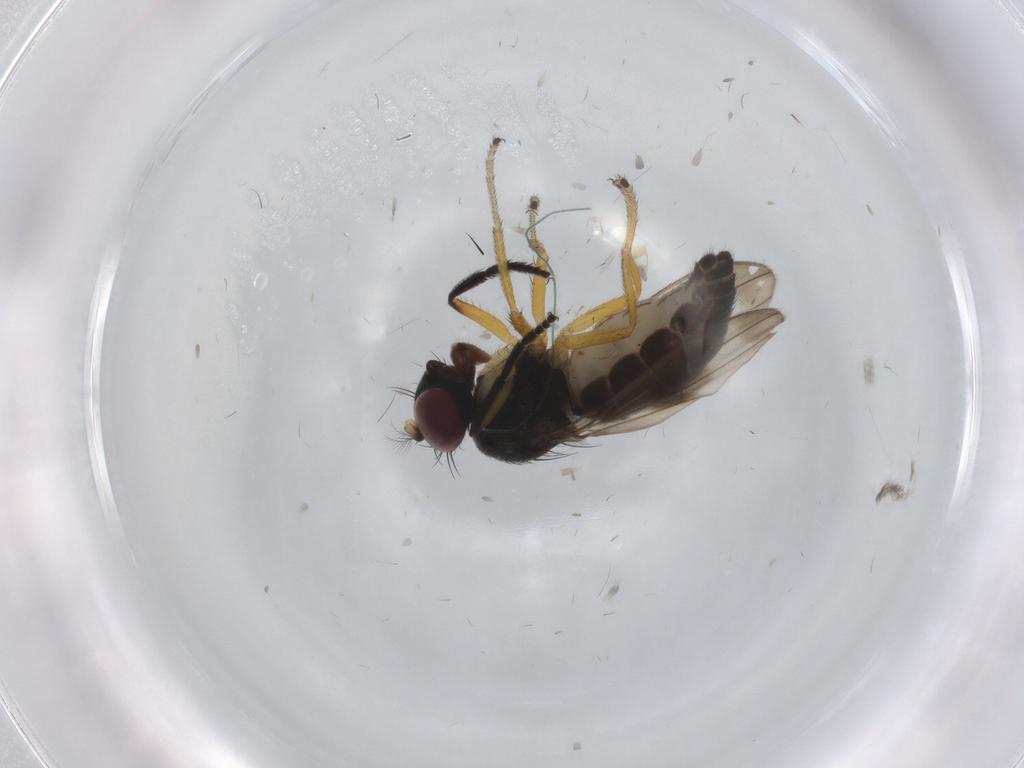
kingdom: Animalia
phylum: Arthropoda
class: Insecta
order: Diptera
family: Ephydridae
